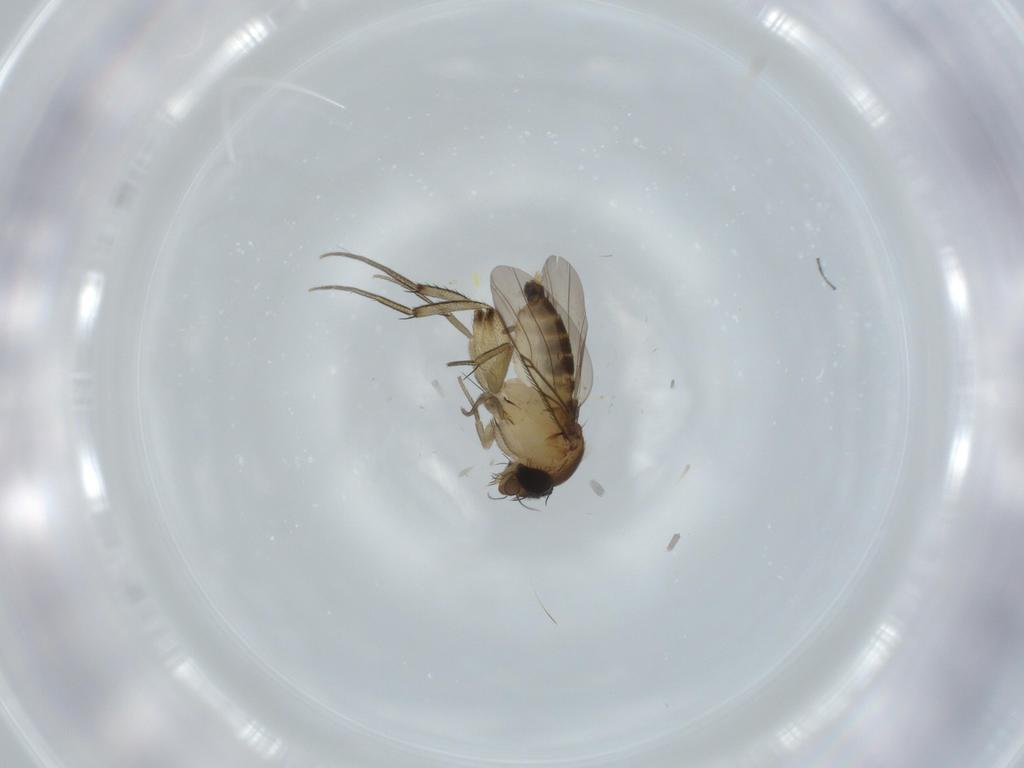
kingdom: Animalia
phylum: Arthropoda
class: Insecta
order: Diptera
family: Phoridae
